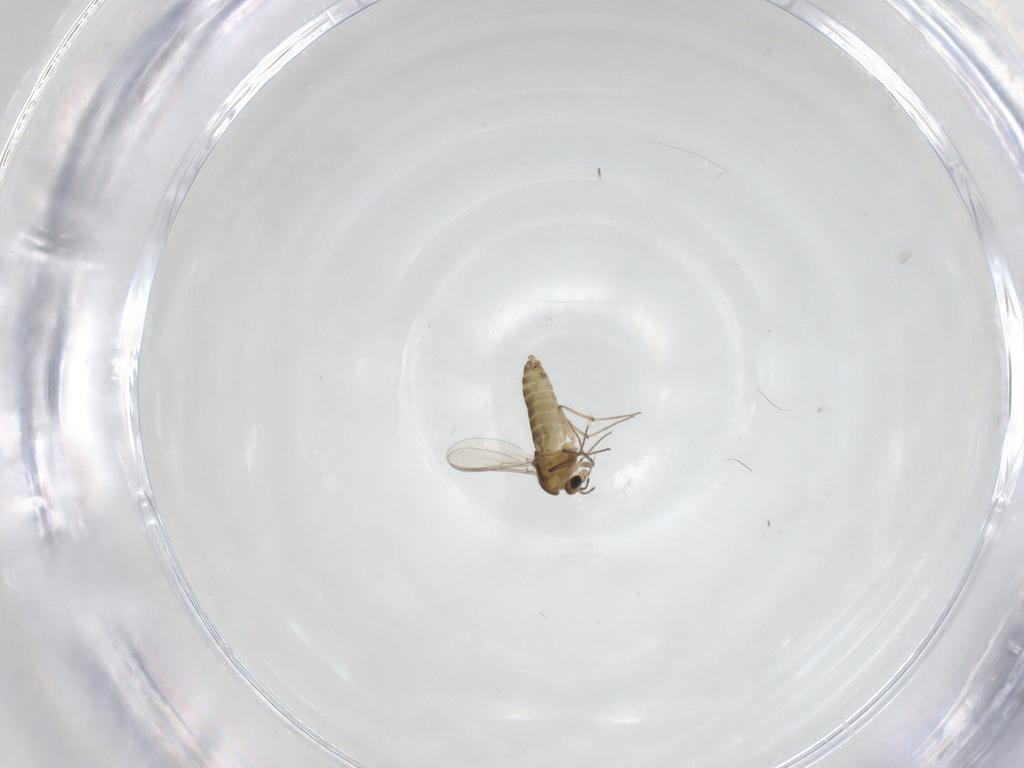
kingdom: Animalia
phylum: Arthropoda
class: Insecta
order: Diptera
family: Chironomidae
